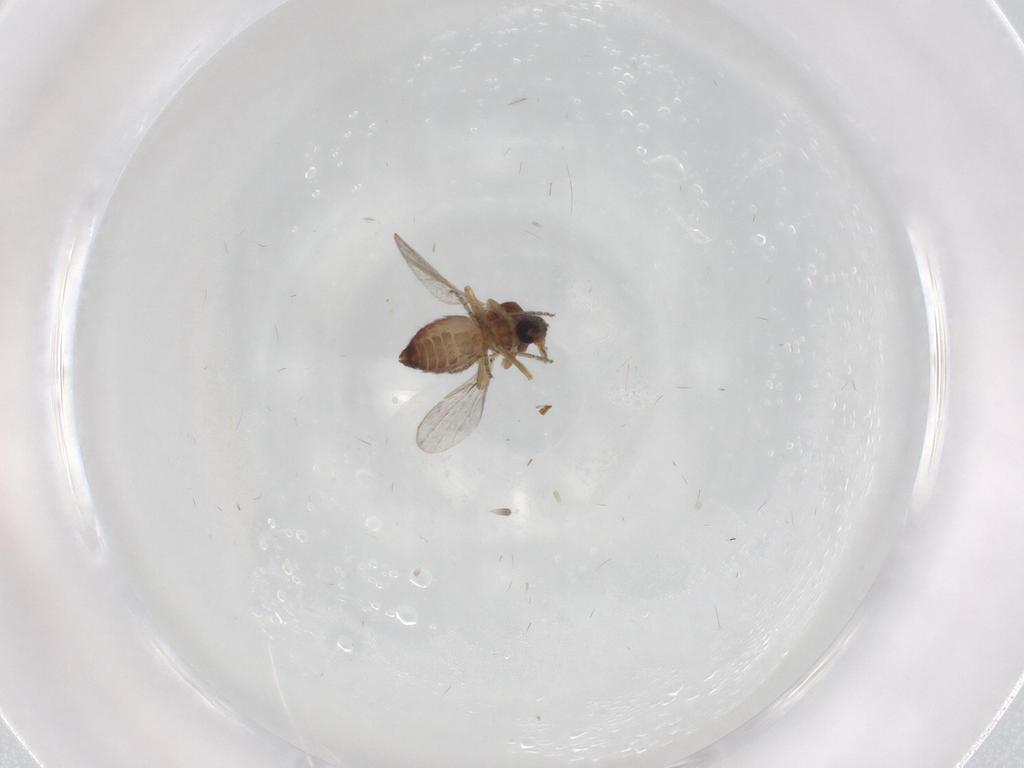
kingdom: Animalia
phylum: Arthropoda
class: Insecta
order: Diptera
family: Ceratopogonidae
